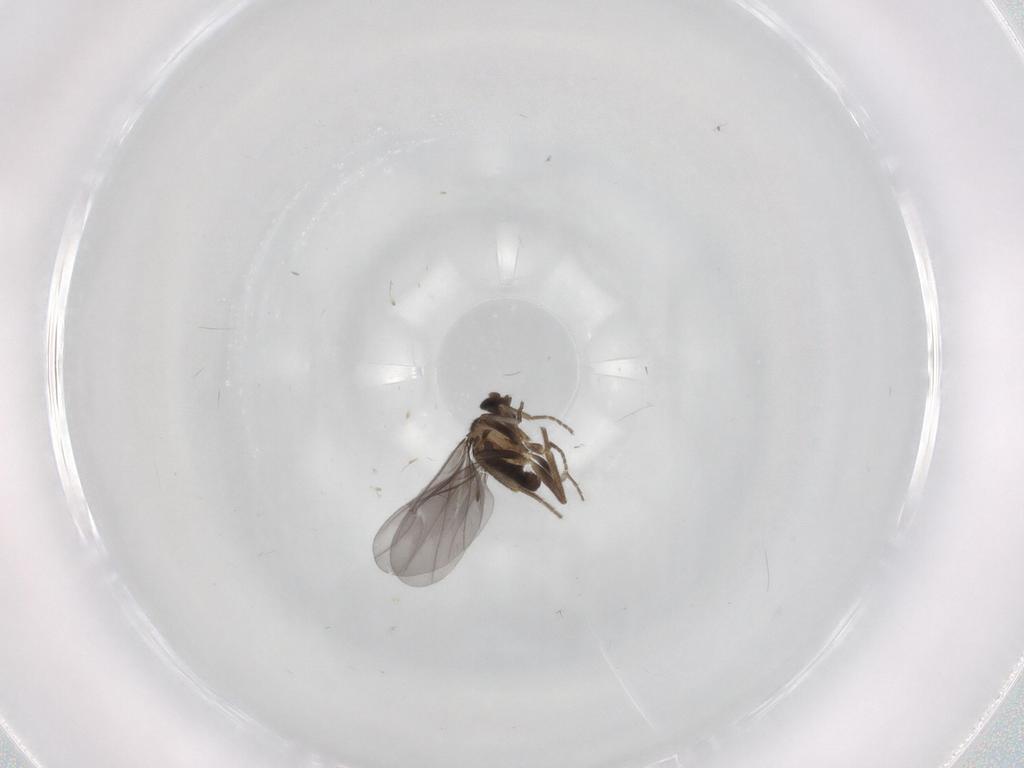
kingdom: Animalia
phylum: Arthropoda
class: Insecta
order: Diptera
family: Phoridae
